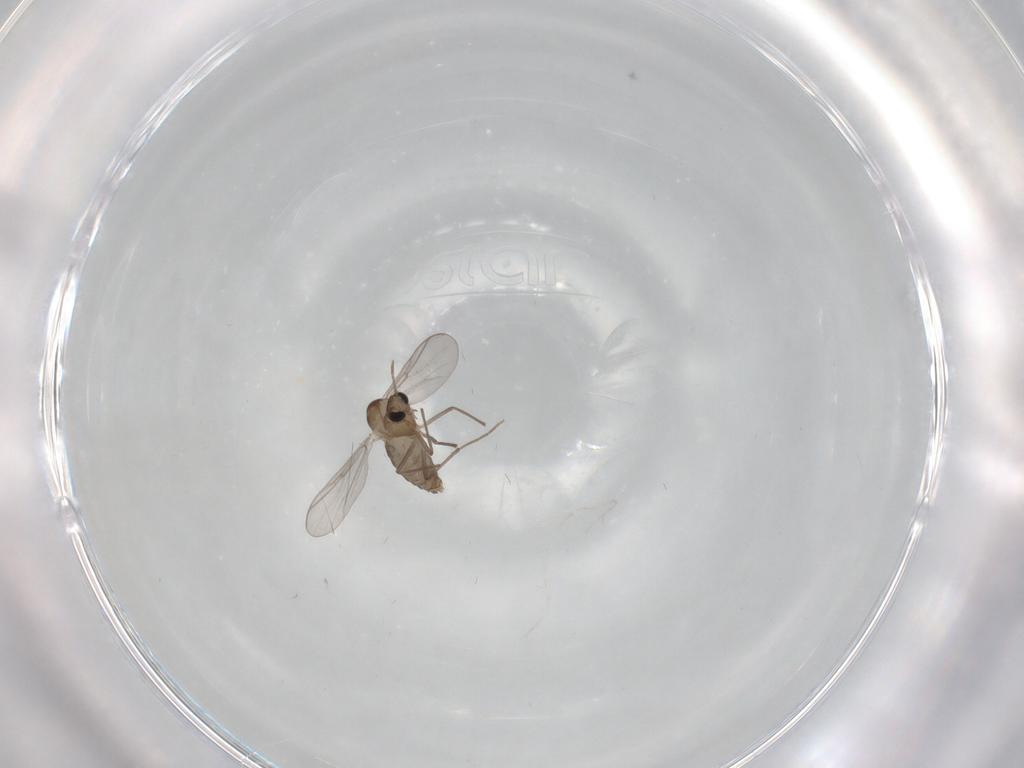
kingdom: Animalia
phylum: Arthropoda
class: Insecta
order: Diptera
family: Chironomidae
